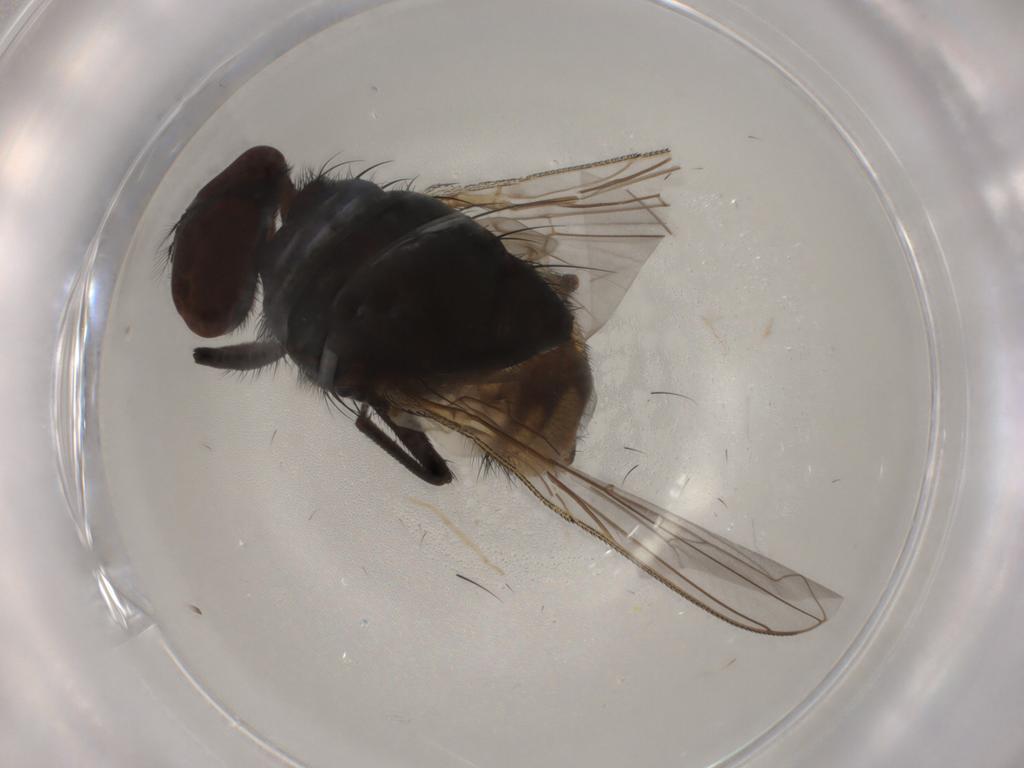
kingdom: Animalia
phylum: Arthropoda
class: Insecta
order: Diptera
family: Muscidae
